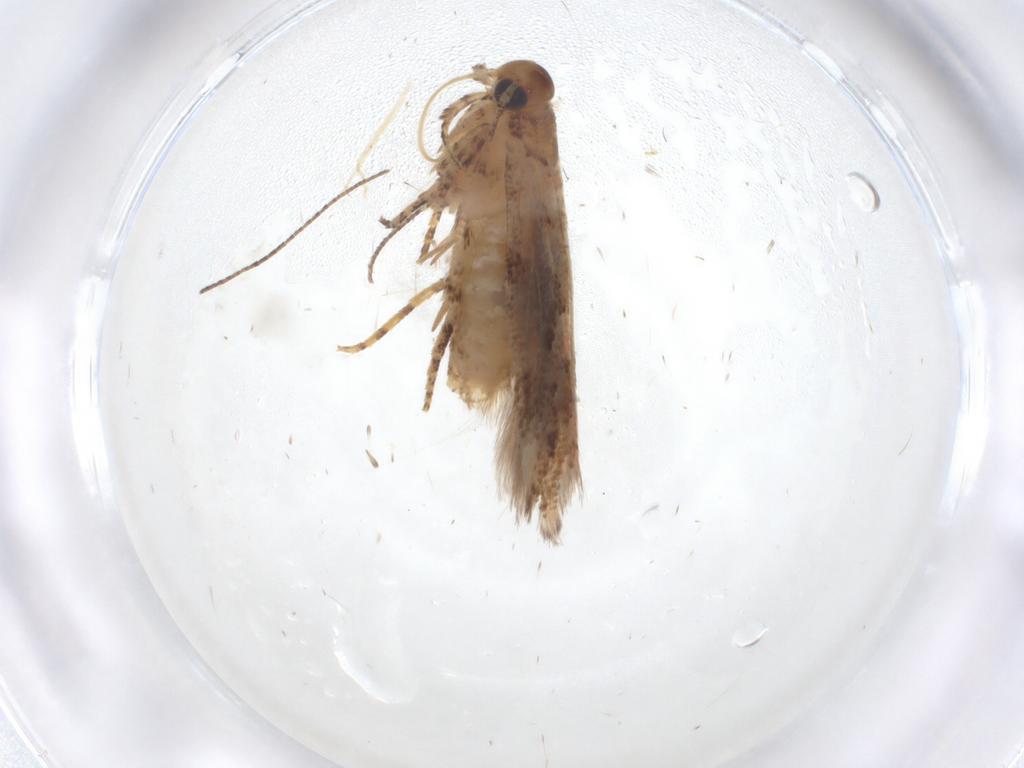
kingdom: Animalia
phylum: Arthropoda
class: Insecta
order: Lepidoptera
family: Gelechiidae
